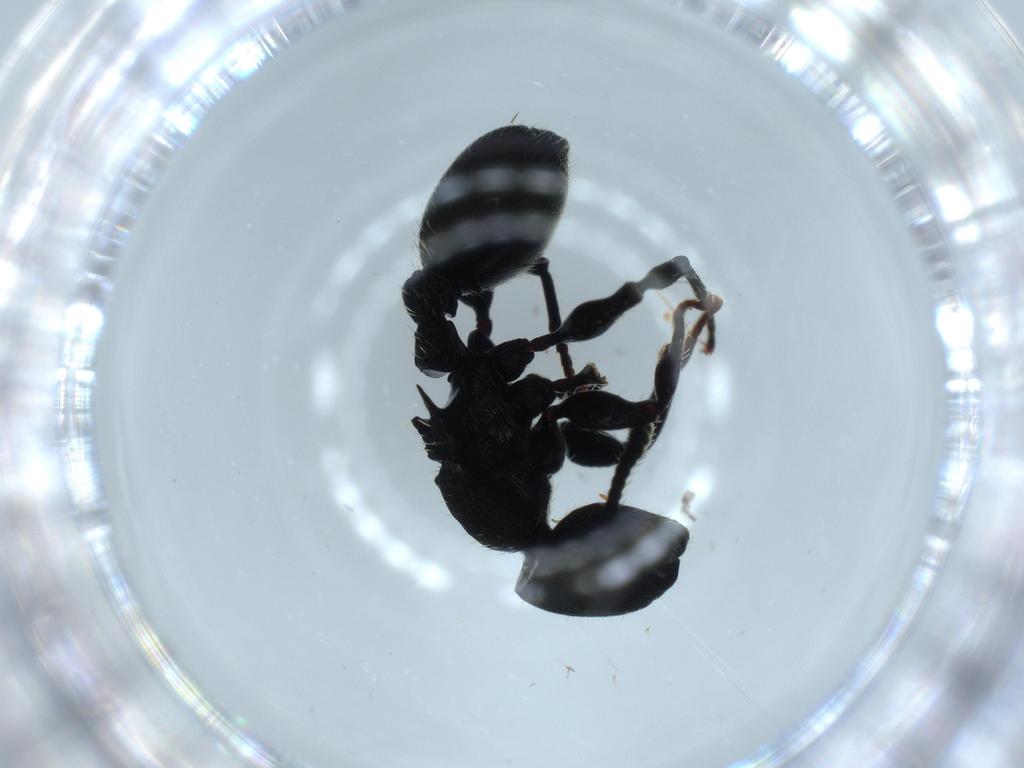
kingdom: Animalia
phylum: Arthropoda
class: Insecta
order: Hymenoptera
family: Formicidae
